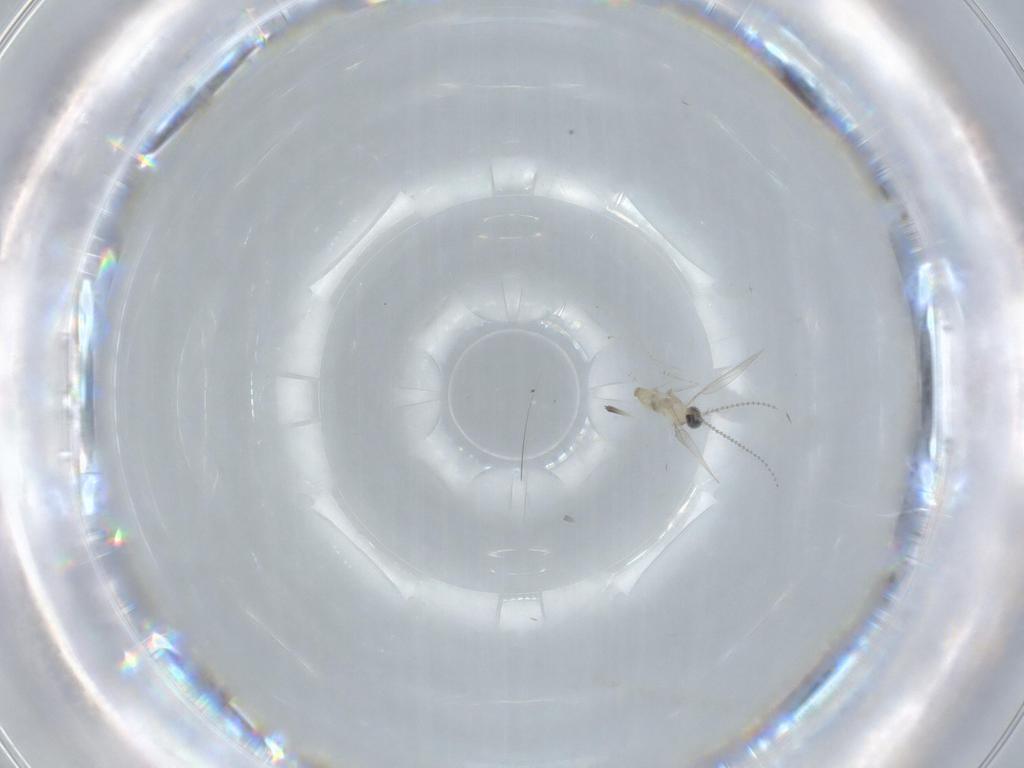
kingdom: Animalia
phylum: Arthropoda
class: Insecta
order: Diptera
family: Cecidomyiidae
